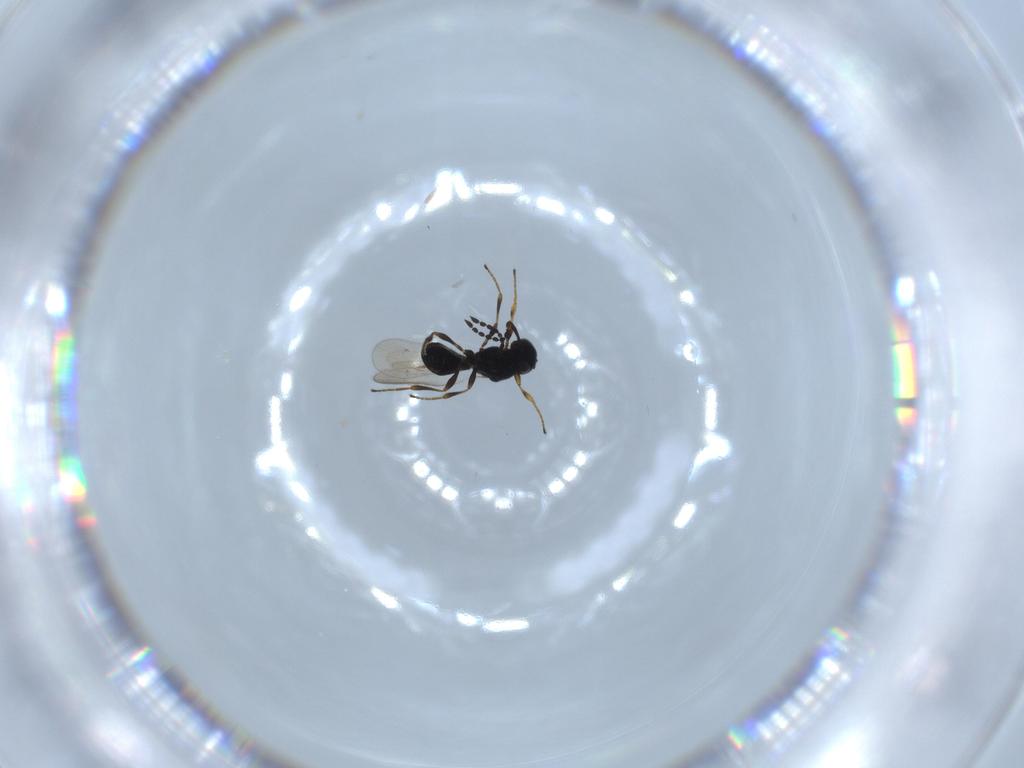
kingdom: Animalia
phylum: Arthropoda
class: Insecta
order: Hymenoptera
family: Platygastridae
